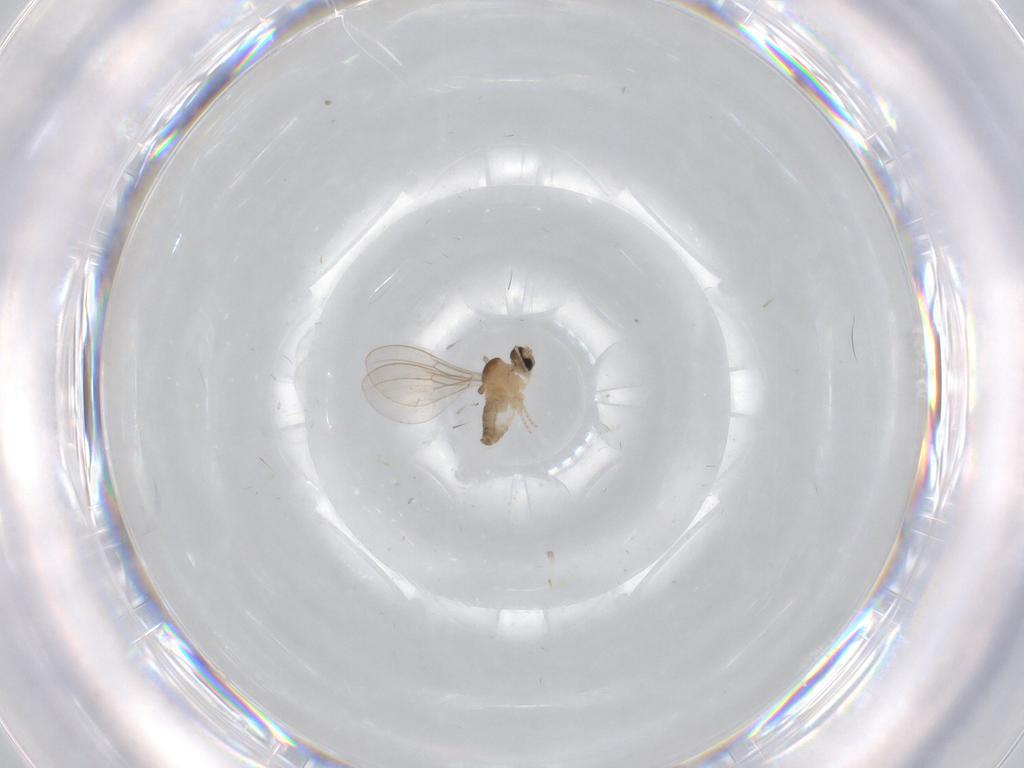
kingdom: Animalia
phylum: Arthropoda
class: Insecta
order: Diptera
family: Cecidomyiidae
